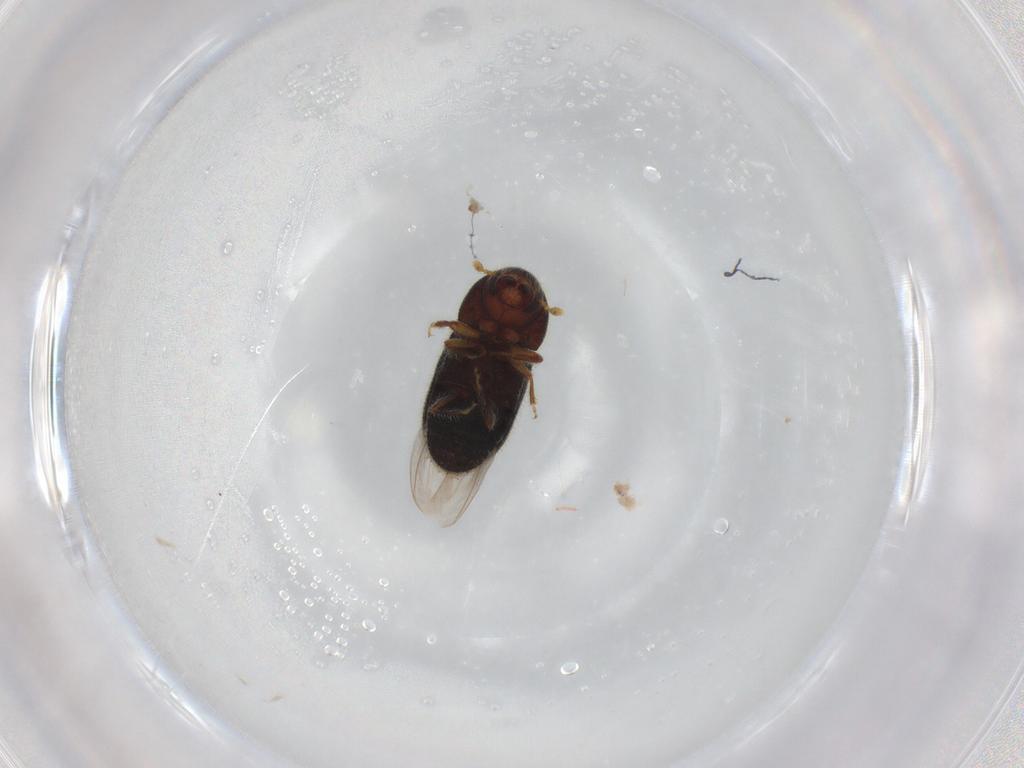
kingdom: Animalia
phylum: Arthropoda
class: Insecta
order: Coleoptera
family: Curculionidae
